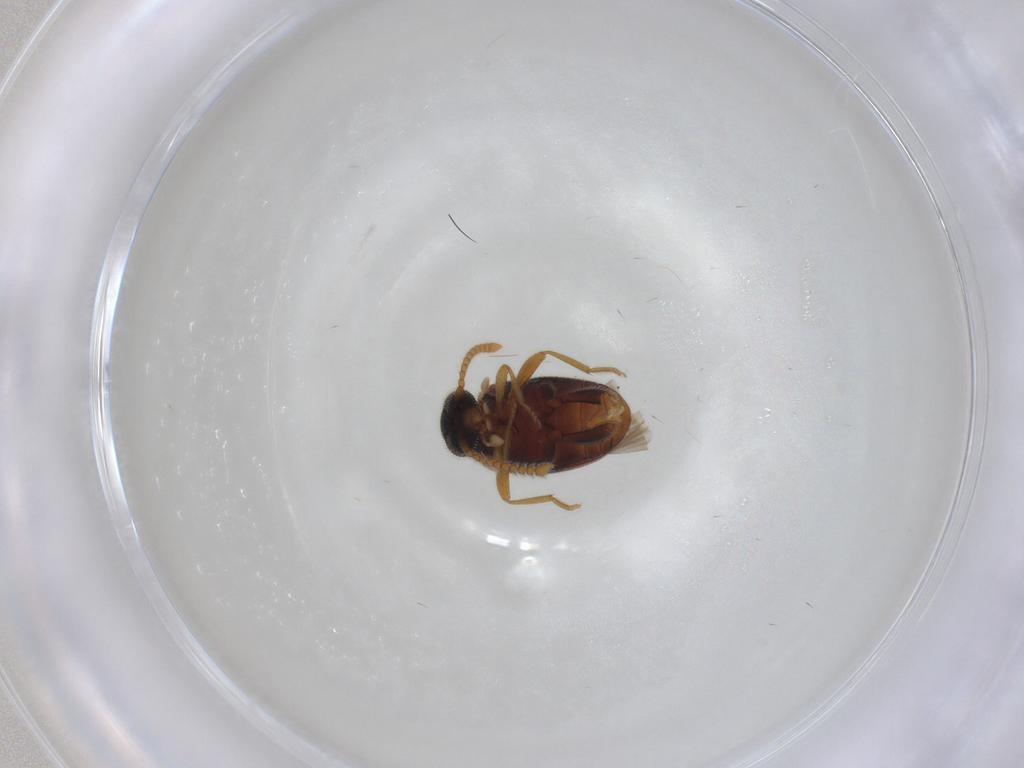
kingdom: Animalia
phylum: Arthropoda
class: Insecta
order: Coleoptera
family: Aderidae
